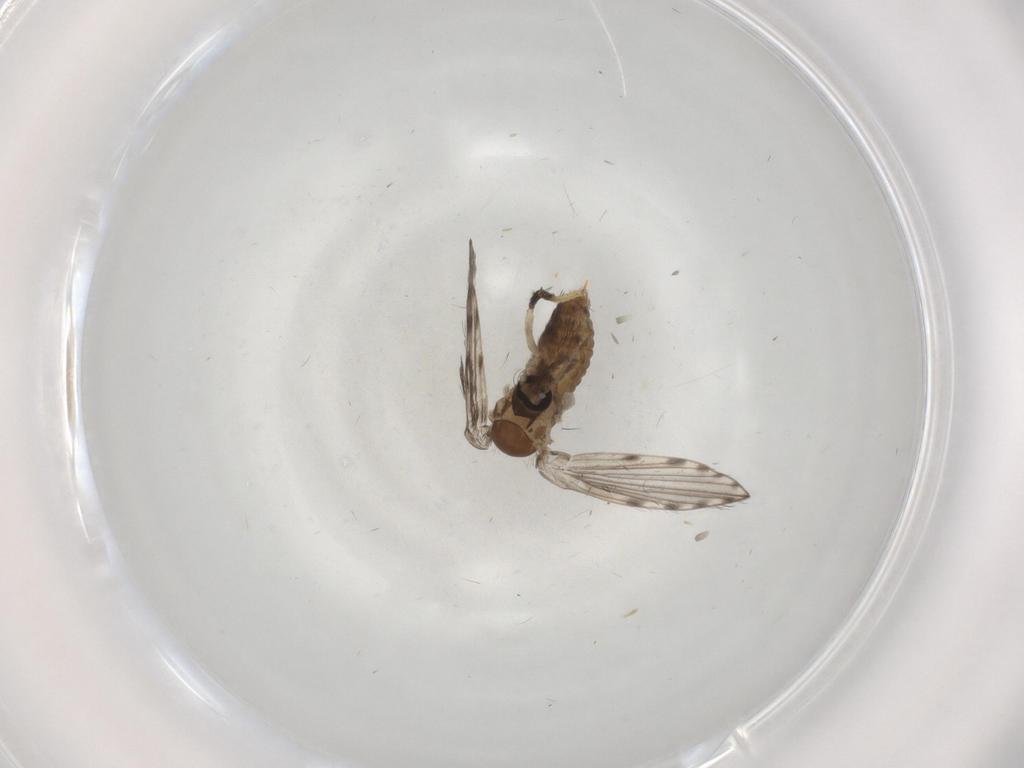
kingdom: Animalia
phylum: Arthropoda
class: Insecta
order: Diptera
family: Psychodidae
